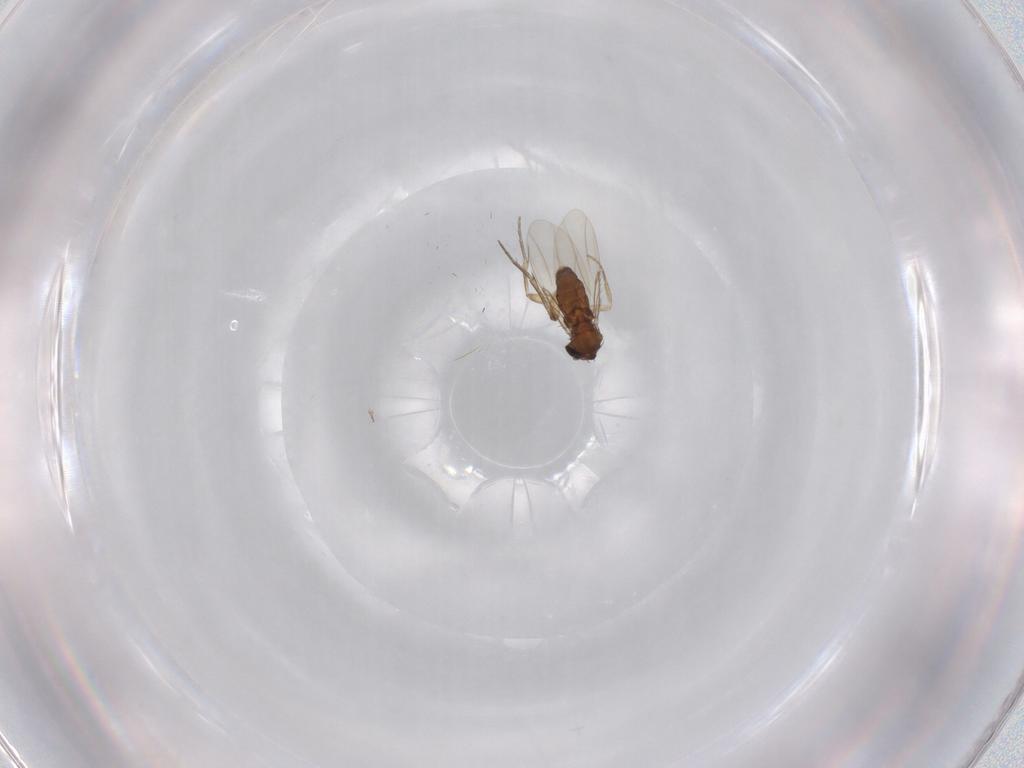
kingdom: Animalia
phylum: Arthropoda
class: Insecta
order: Diptera
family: Phoridae
